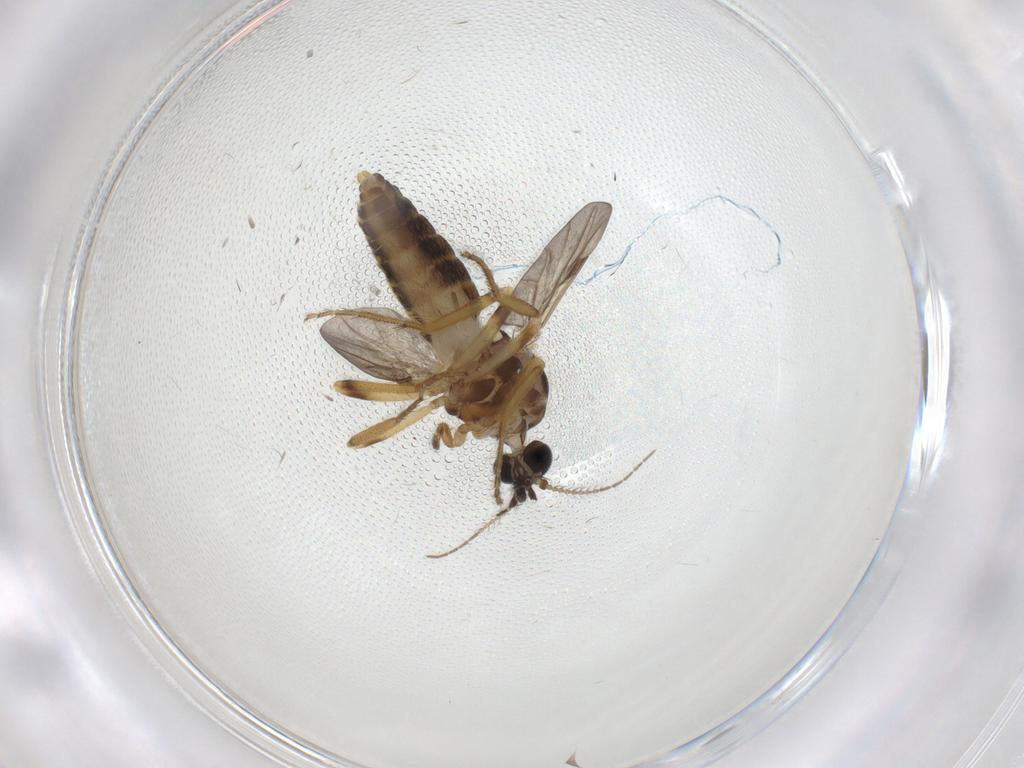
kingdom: Animalia
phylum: Arthropoda
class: Insecta
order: Diptera
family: Ceratopogonidae
